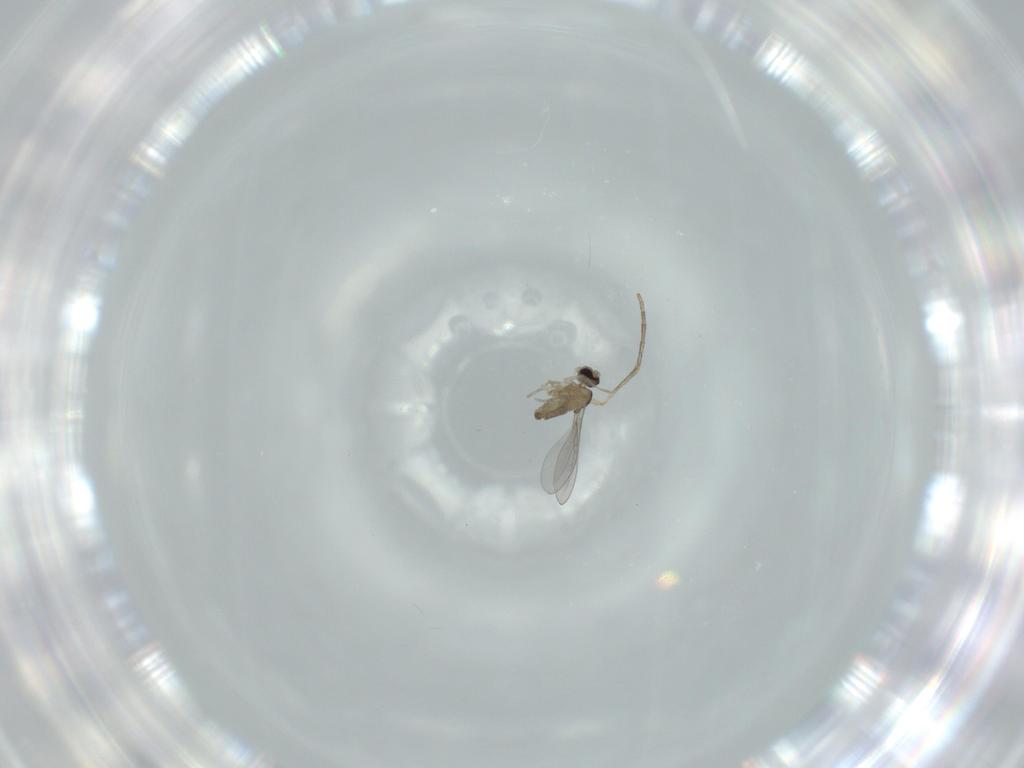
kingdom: Animalia
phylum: Arthropoda
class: Insecta
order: Diptera
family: Cecidomyiidae
